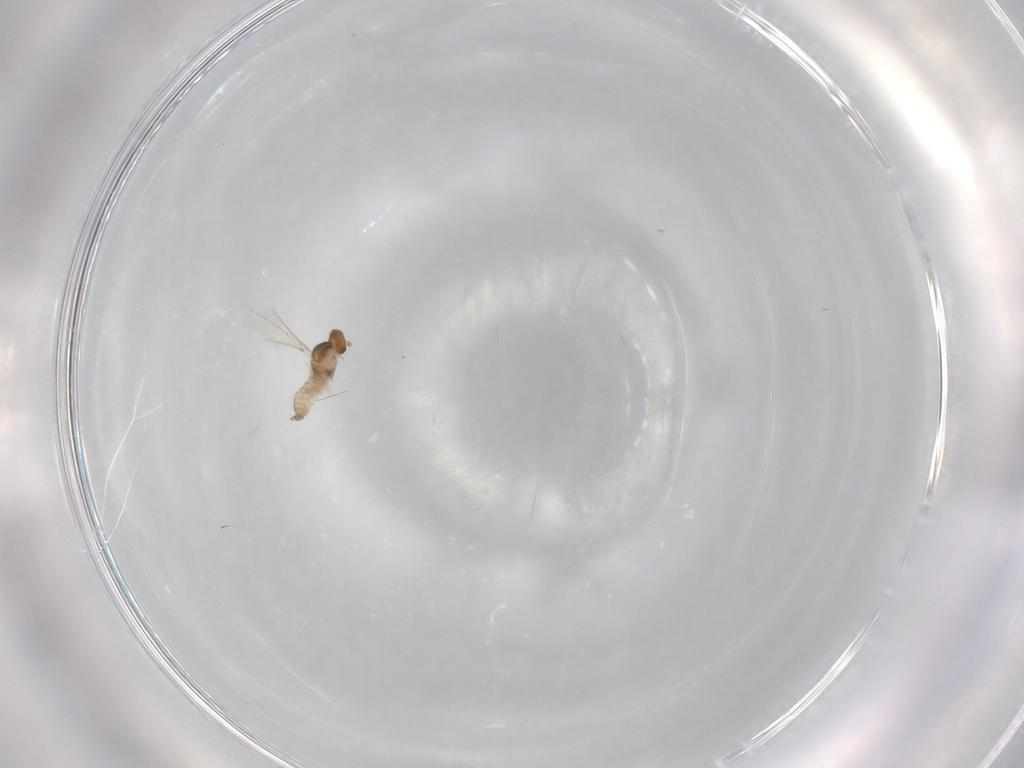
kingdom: Animalia
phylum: Arthropoda
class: Insecta
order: Diptera
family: Cecidomyiidae
